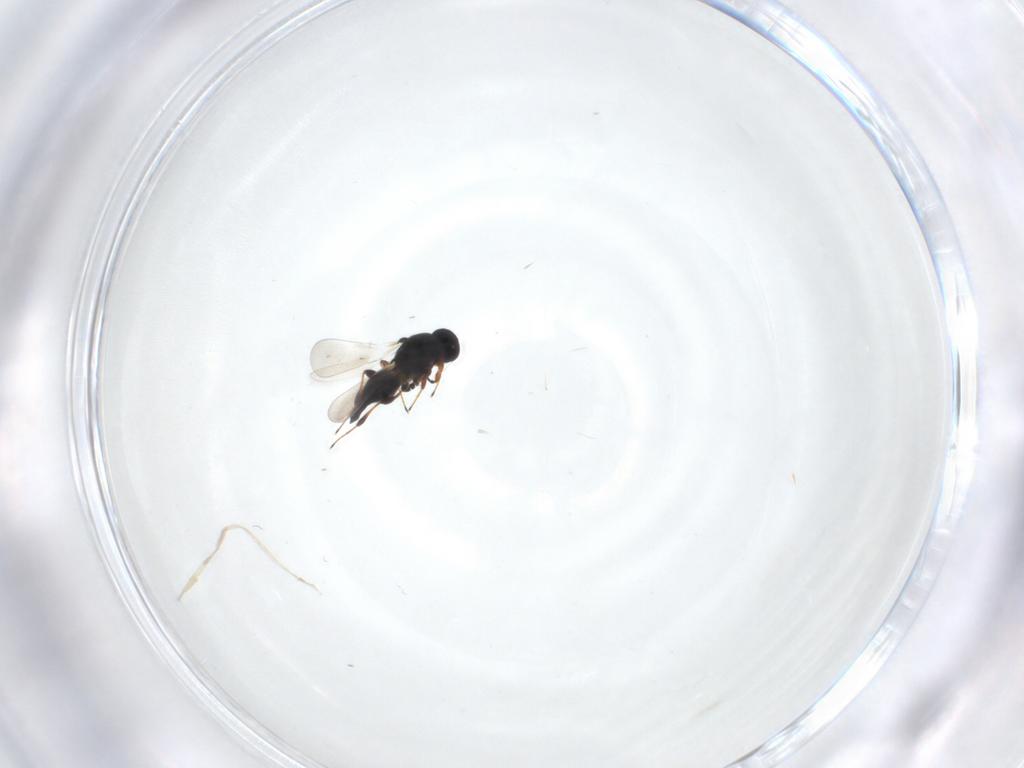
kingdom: Animalia
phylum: Arthropoda
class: Insecta
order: Hymenoptera
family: Platygastridae
